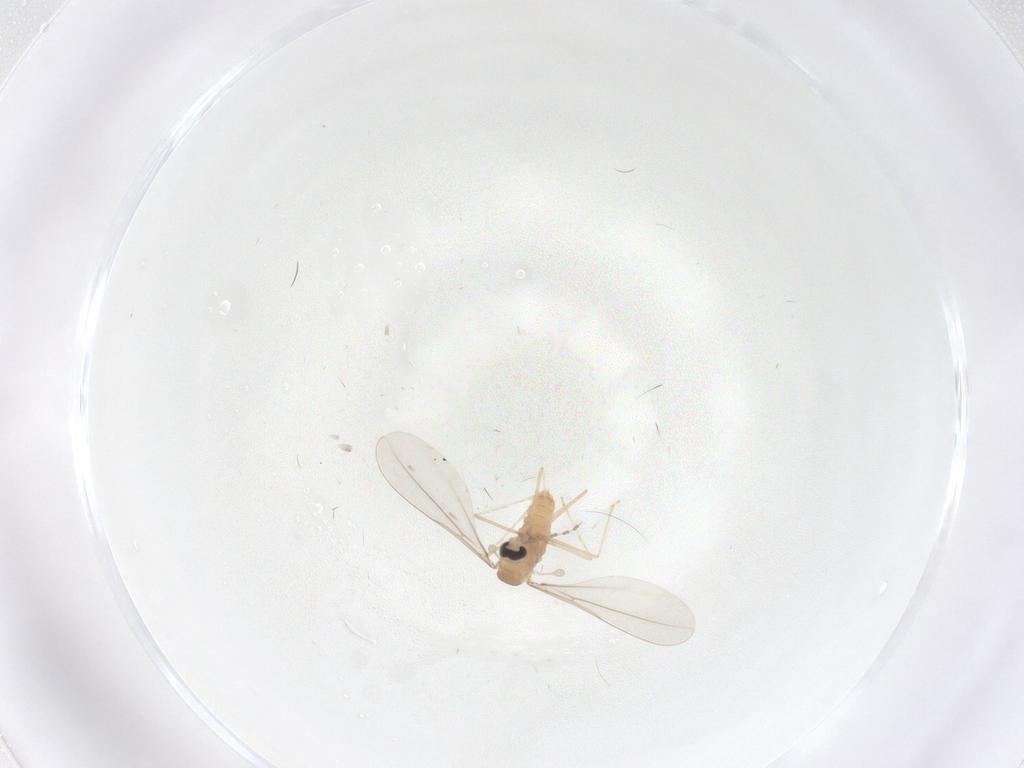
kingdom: Animalia
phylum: Arthropoda
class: Insecta
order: Diptera
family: Cecidomyiidae
